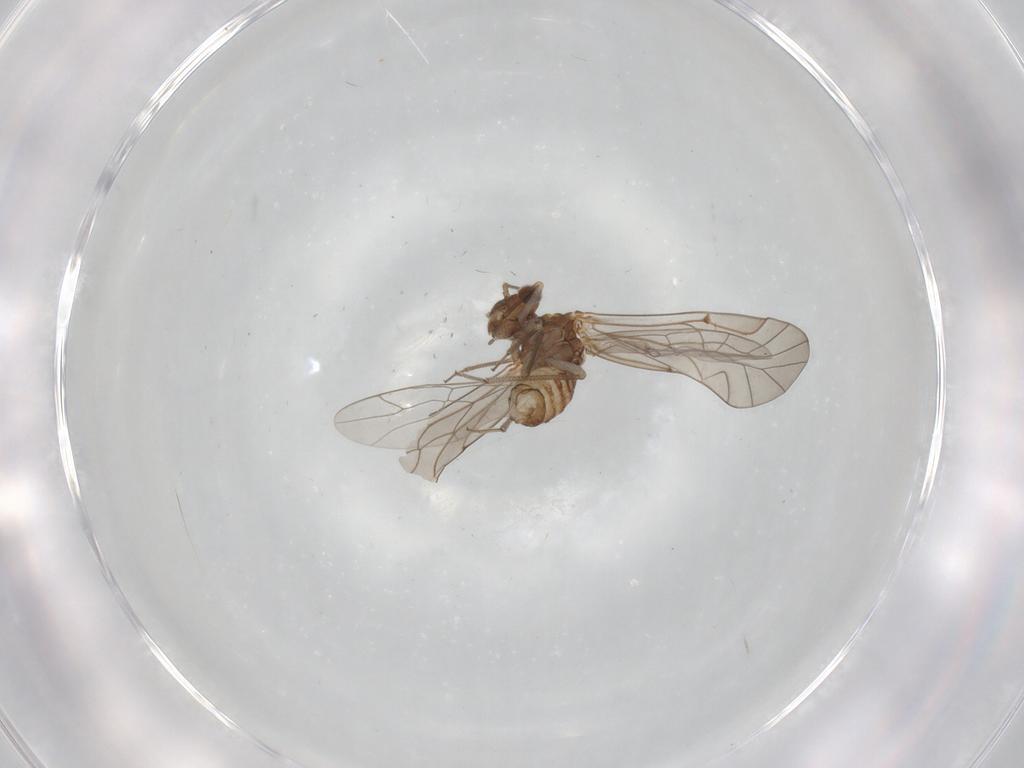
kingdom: Animalia
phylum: Arthropoda
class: Insecta
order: Psocodea
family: Lachesillidae
